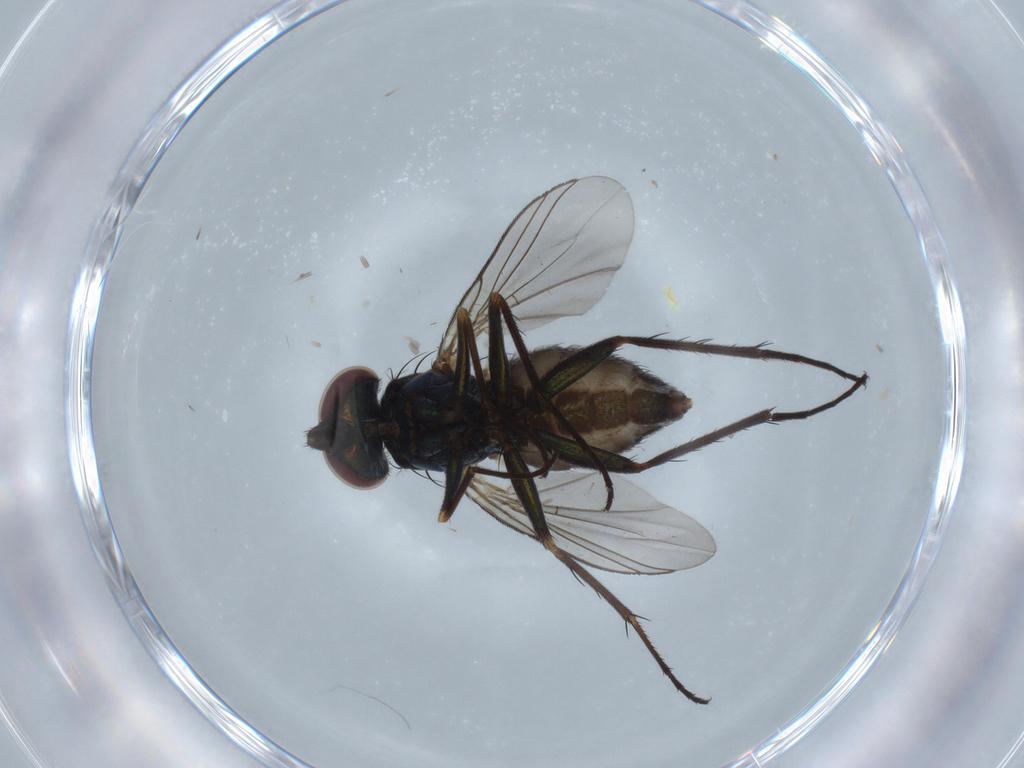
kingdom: Animalia
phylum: Arthropoda
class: Insecta
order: Diptera
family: Dolichopodidae
